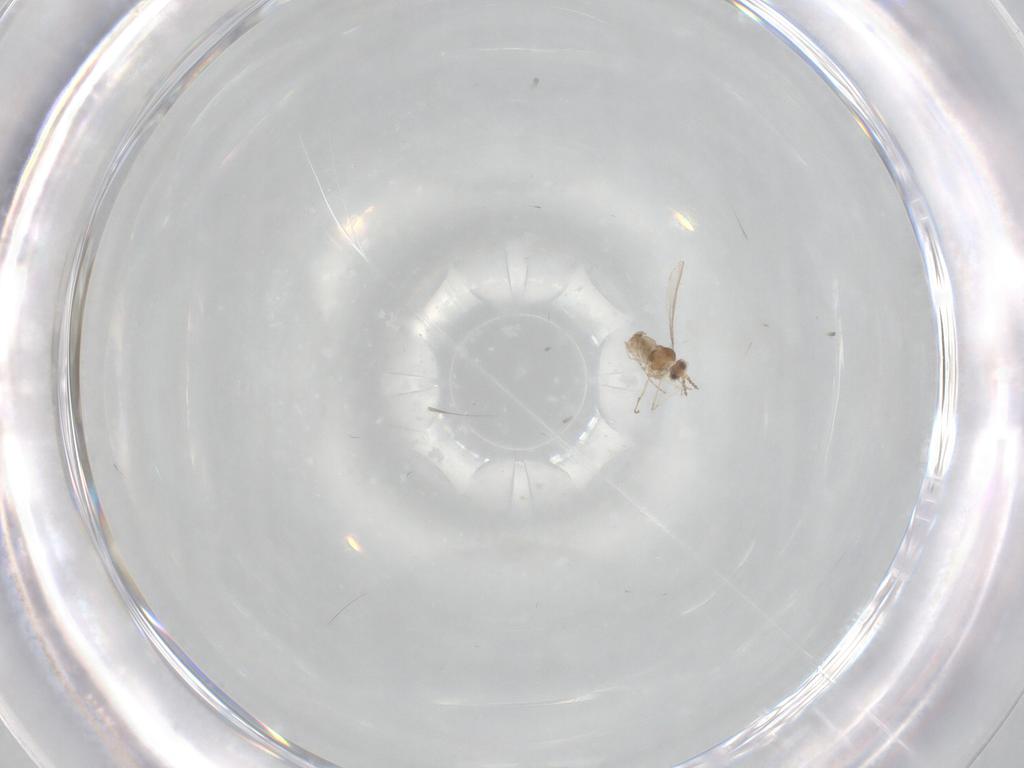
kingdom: Animalia
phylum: Arthropoda
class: Insecta
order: Diptera
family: Cecidomyiidae
